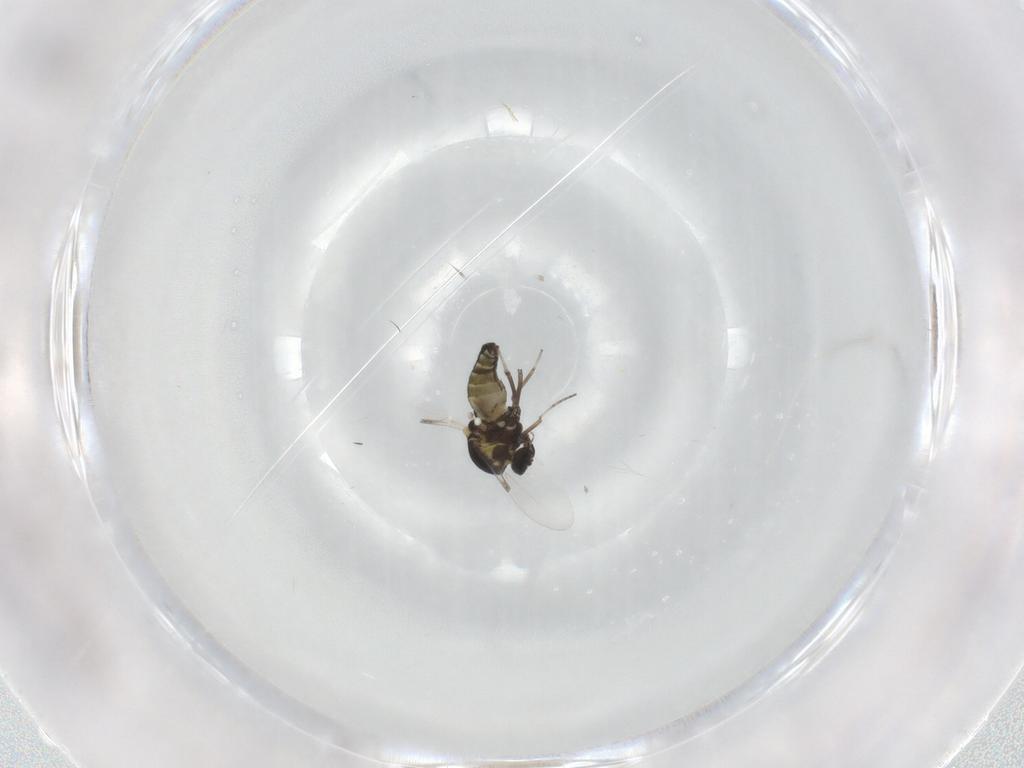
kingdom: Animalia
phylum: Arthropoda
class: Insecta
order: Diptera
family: Ceratopogonidae
